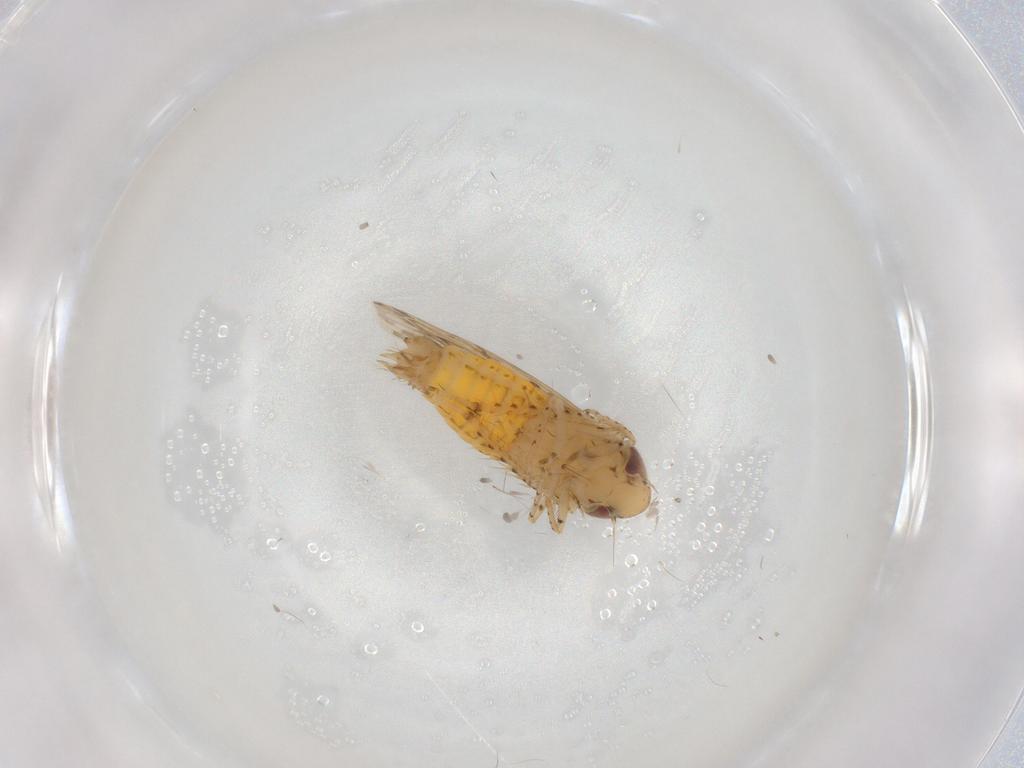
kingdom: Animalia
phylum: Arthropoda
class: Insecta
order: Hemiptera
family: Cicadellidae
